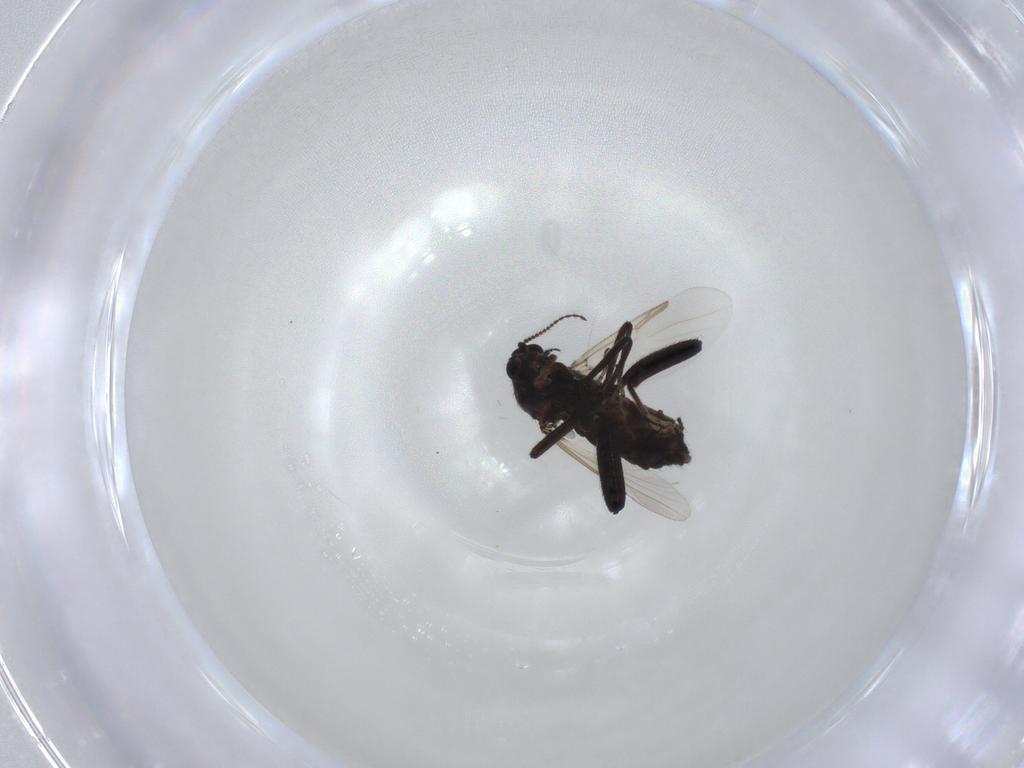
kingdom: Animalia
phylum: Arthropoda
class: Insecta
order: Diptera
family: Ceratopogonidae
